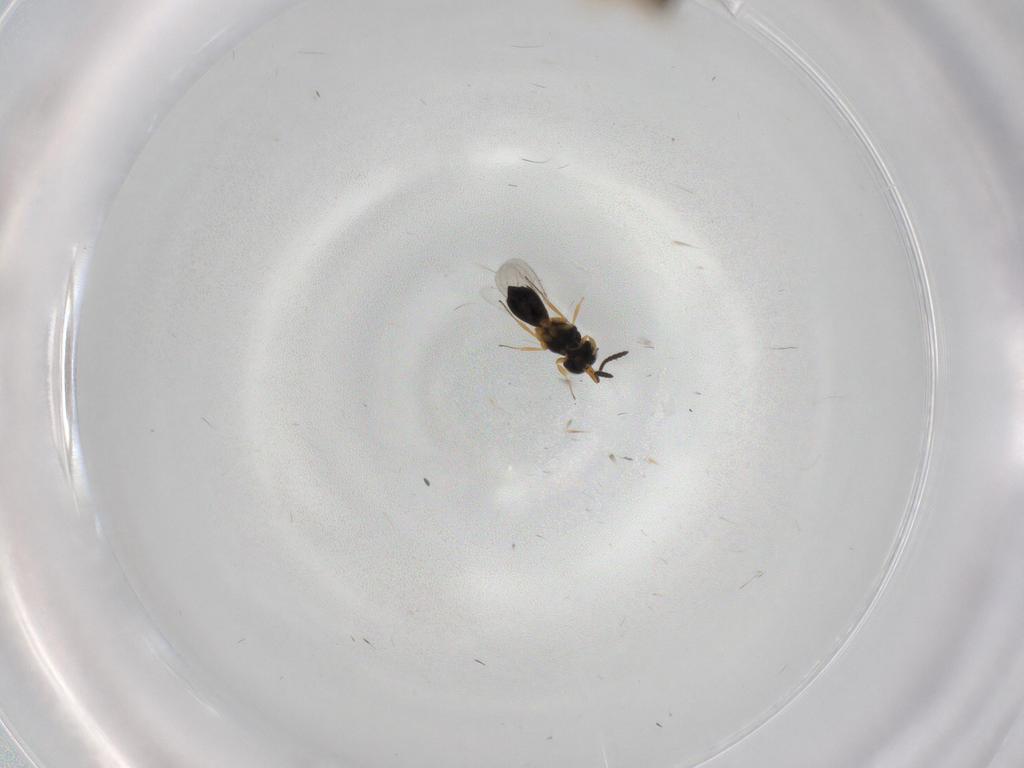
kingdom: Animalia
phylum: Arthropoda
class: Insecta
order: Hymenoptera
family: Scelionidae
